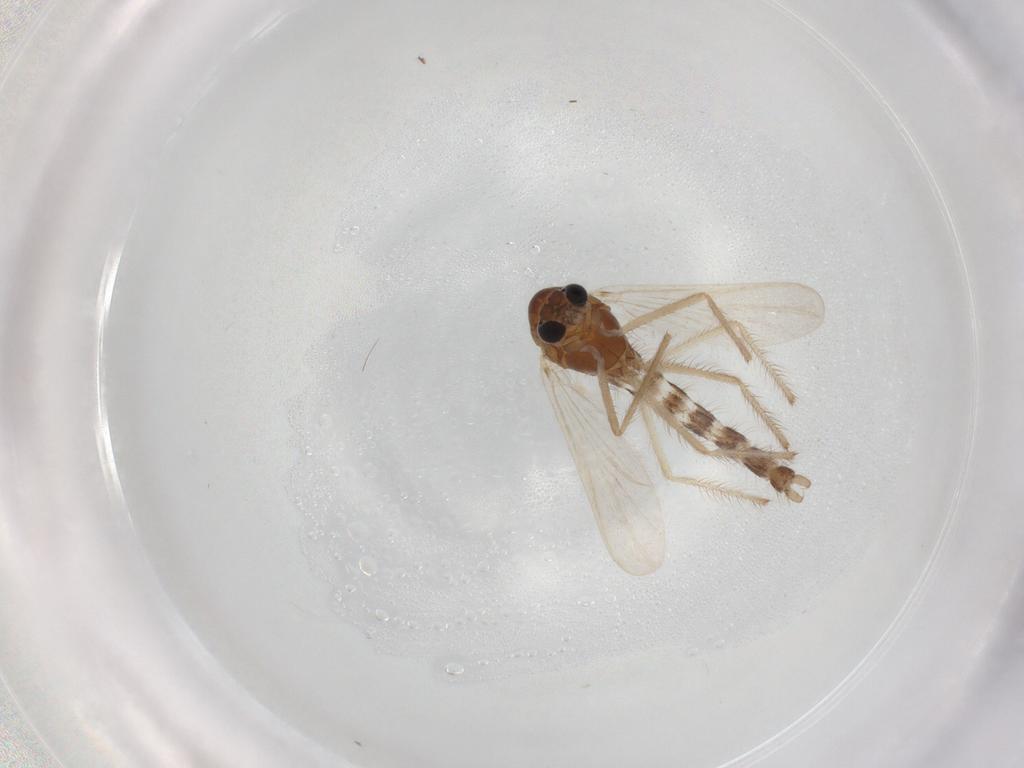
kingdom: Animalia
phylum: Arthropoda
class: Insecta
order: Diptera
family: Chironomidae
